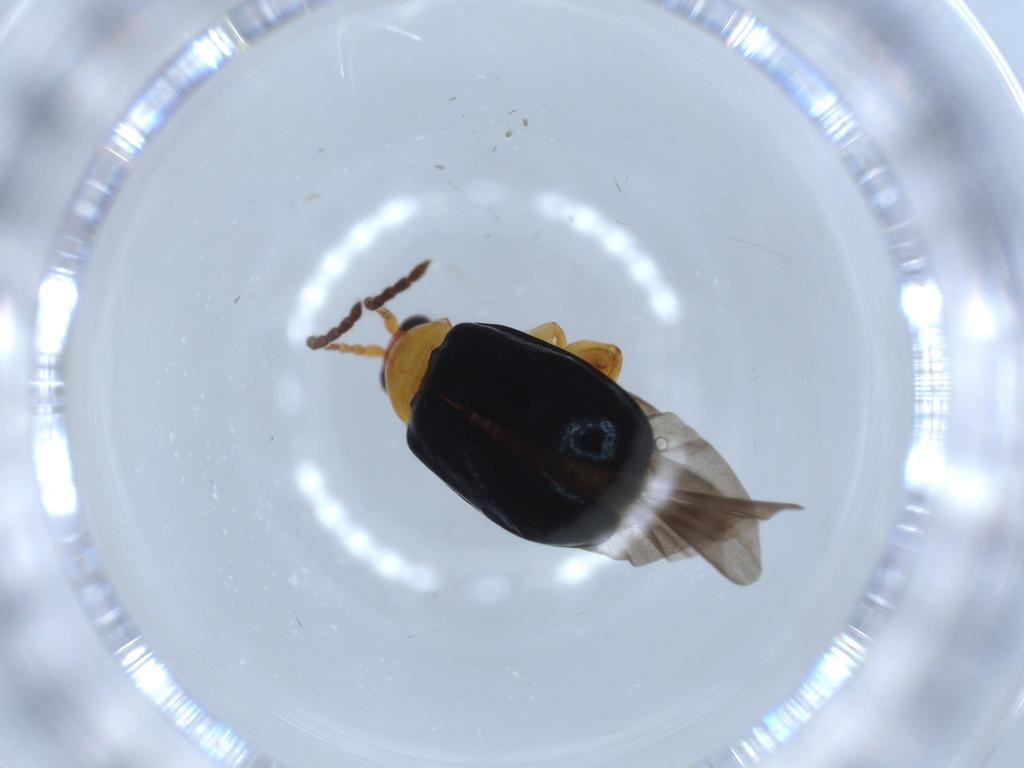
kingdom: Animalia
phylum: Arthropoda
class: Insecta
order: Coleoptera
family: Chrysomelidae
